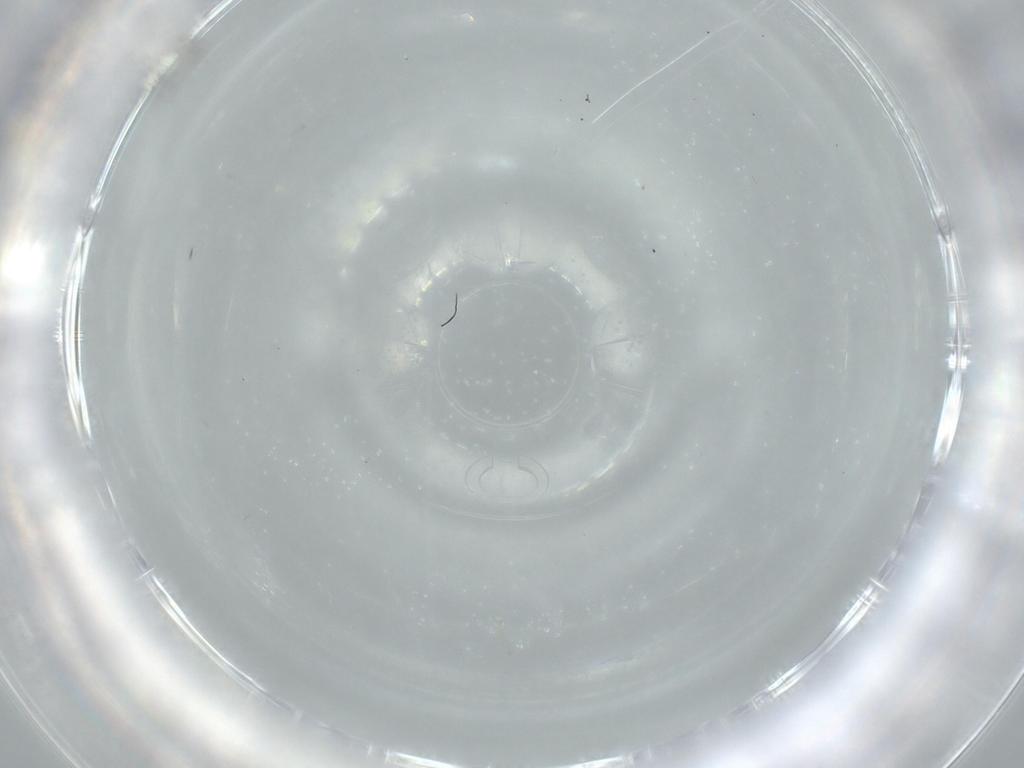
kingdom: Animalia
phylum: Arthropoda
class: Insecta
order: Hymenoptera
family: Mymaridae
